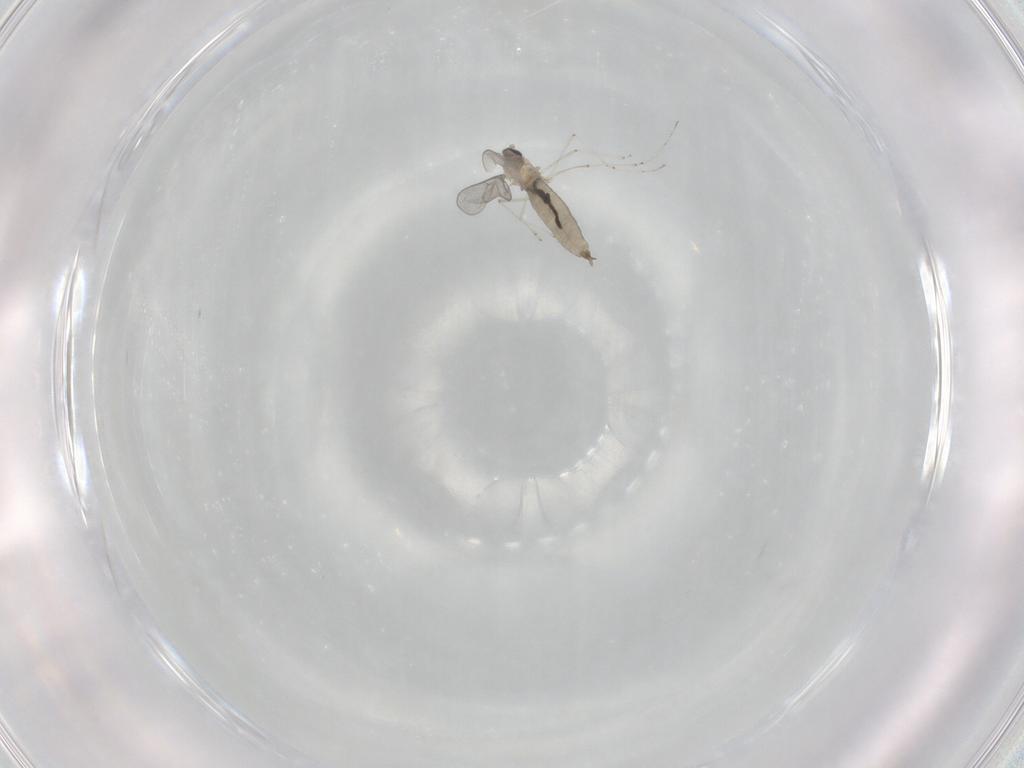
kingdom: Animalia
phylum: Arthropoda
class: Insecta
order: Diptera
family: Cecidomyiidae
